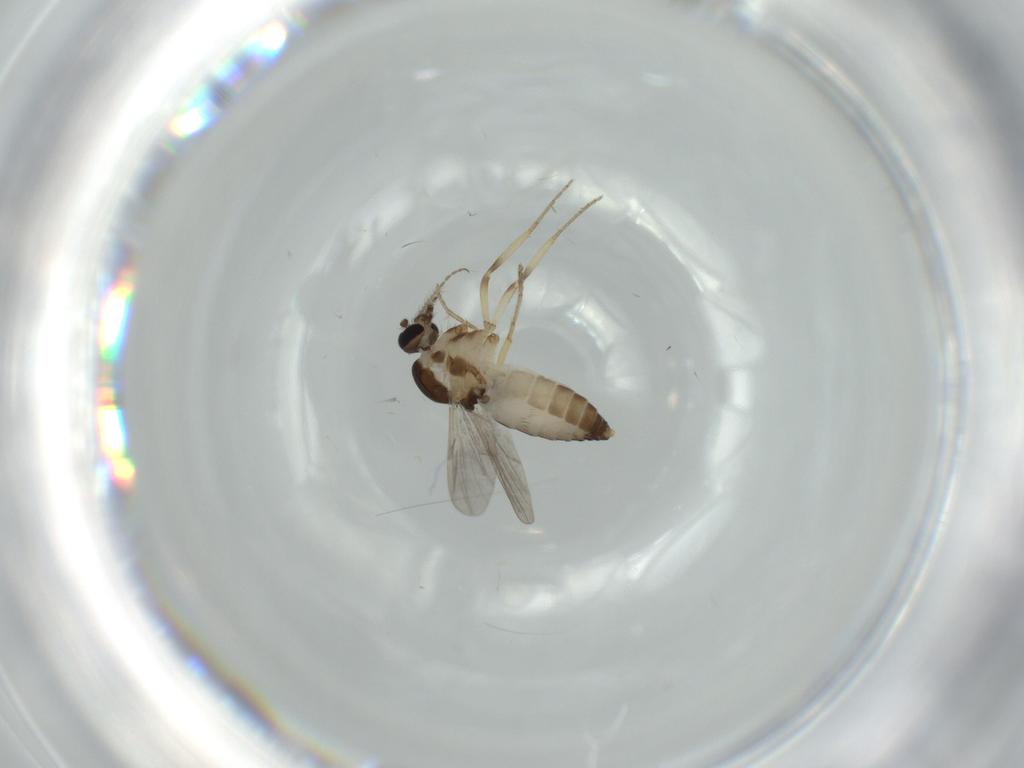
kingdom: Animalia
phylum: Arthropoda
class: Insecta
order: Diptera
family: Ceratopogonidae
